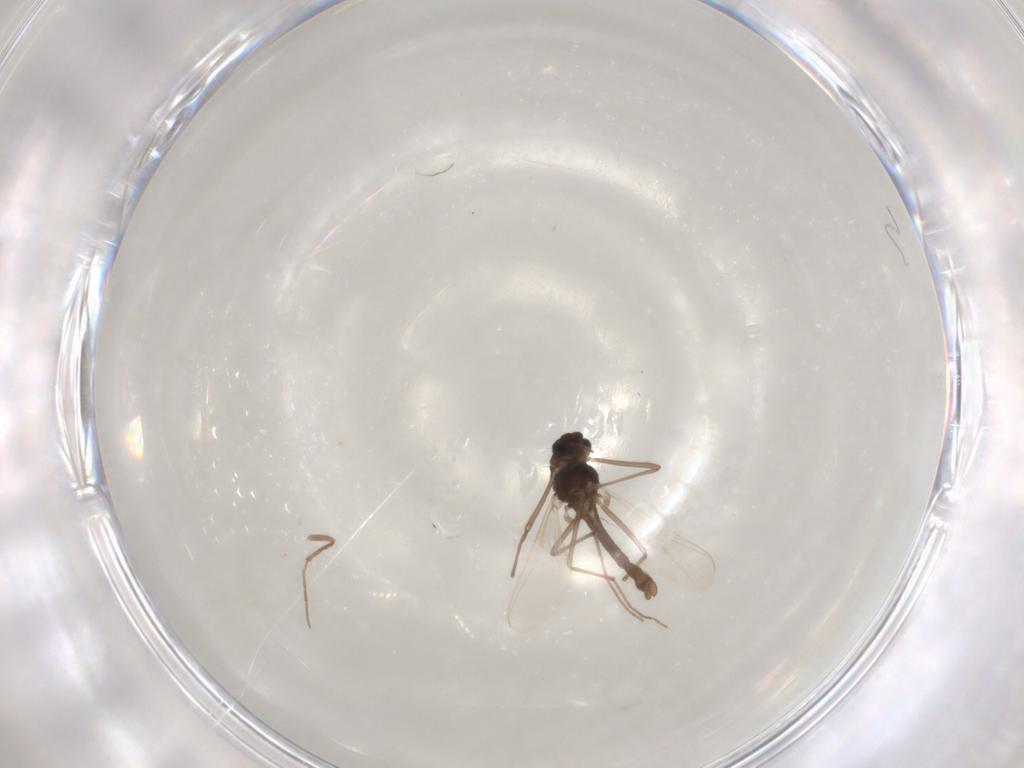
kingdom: Animalia
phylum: Arthropoda
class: Insecta
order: Diptera
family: Chironomidae
